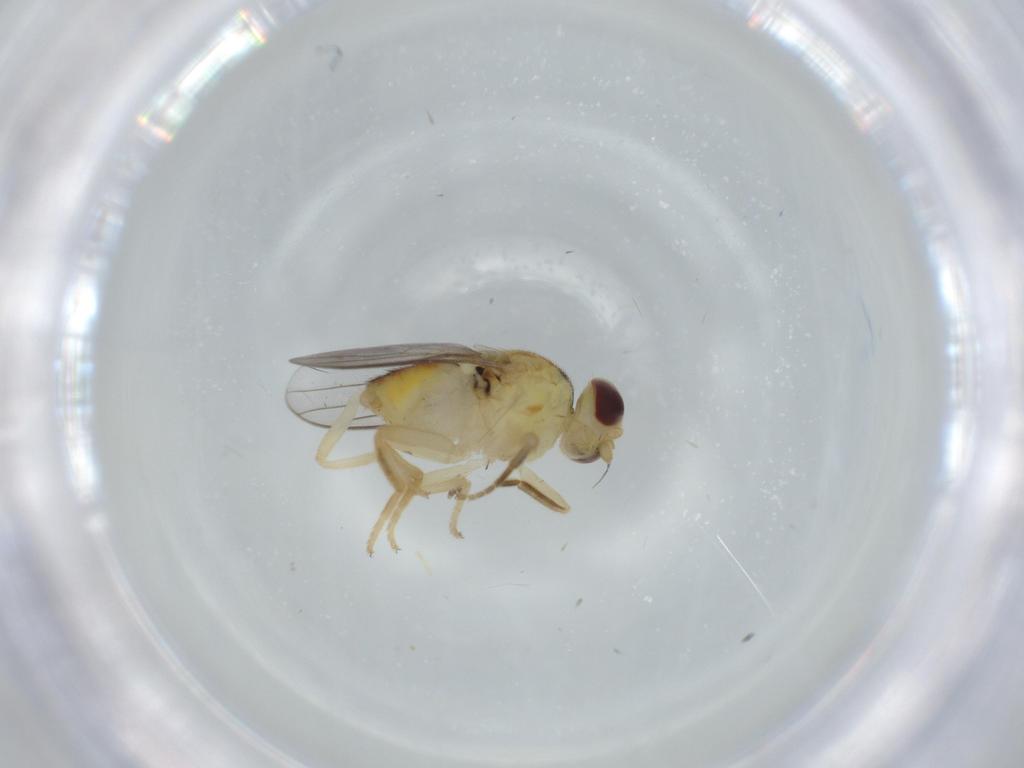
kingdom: Animalia
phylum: Arthropoda
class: Insecta
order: Diptera
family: Chloropidae
